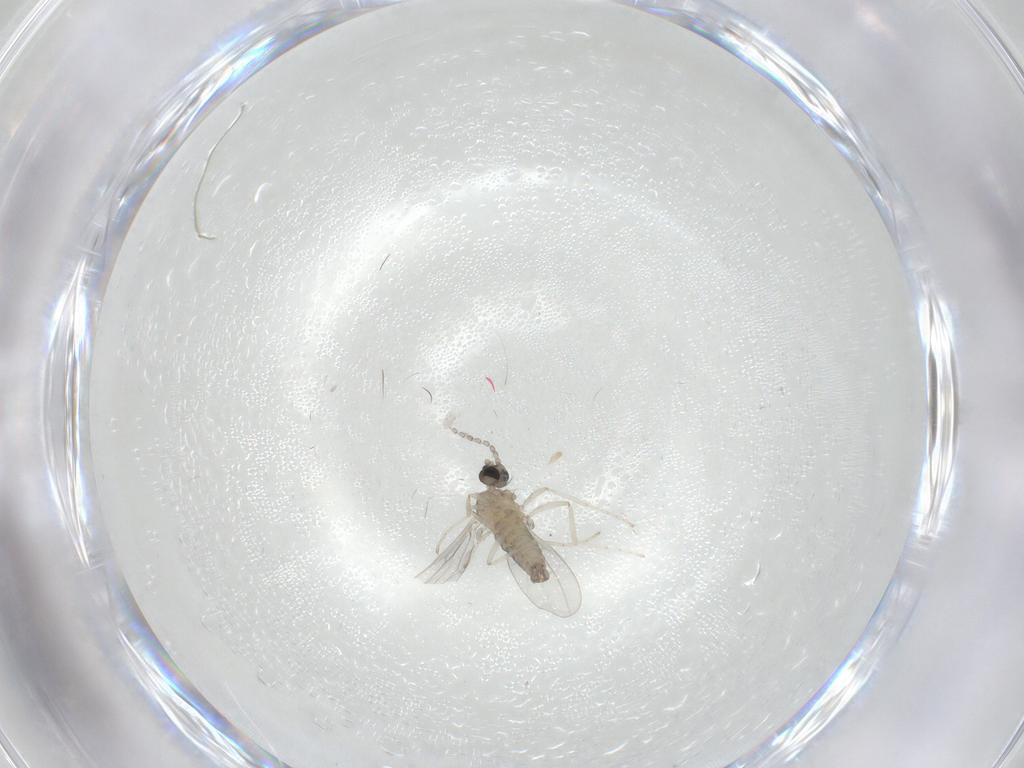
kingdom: Animalia
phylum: Arthropoda
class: Insecta
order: Diptera
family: Cecidomyiidae
